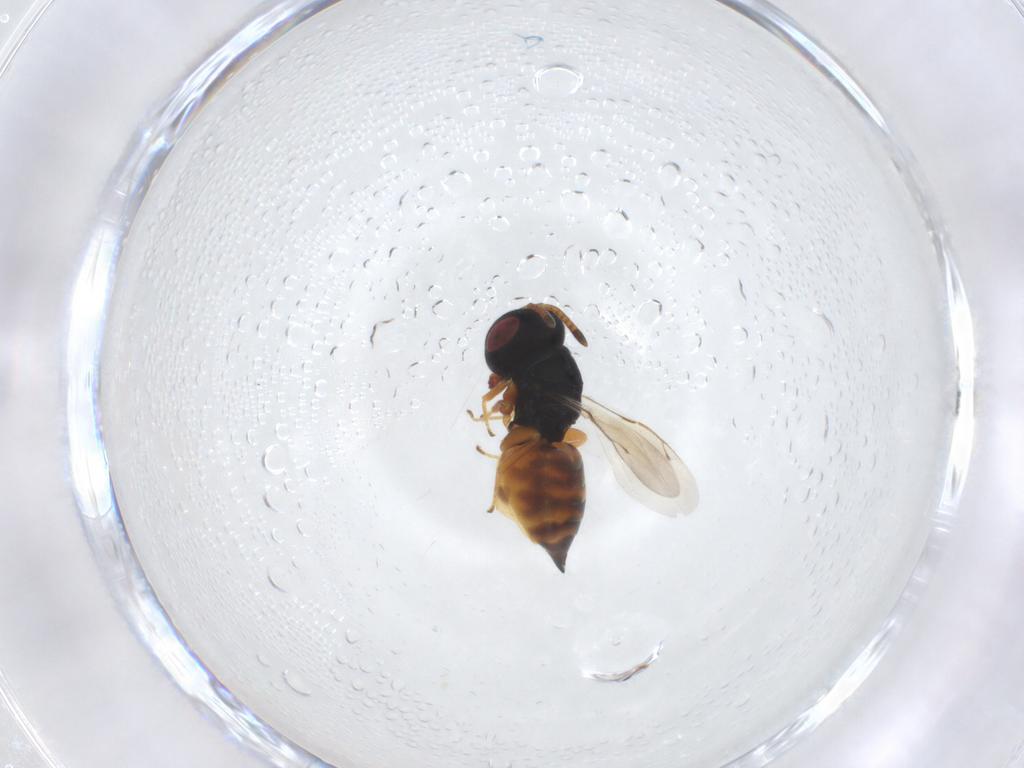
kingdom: Animalia
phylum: Arthropoda
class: Insecta
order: Hymenoptera
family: Pteromalidae
